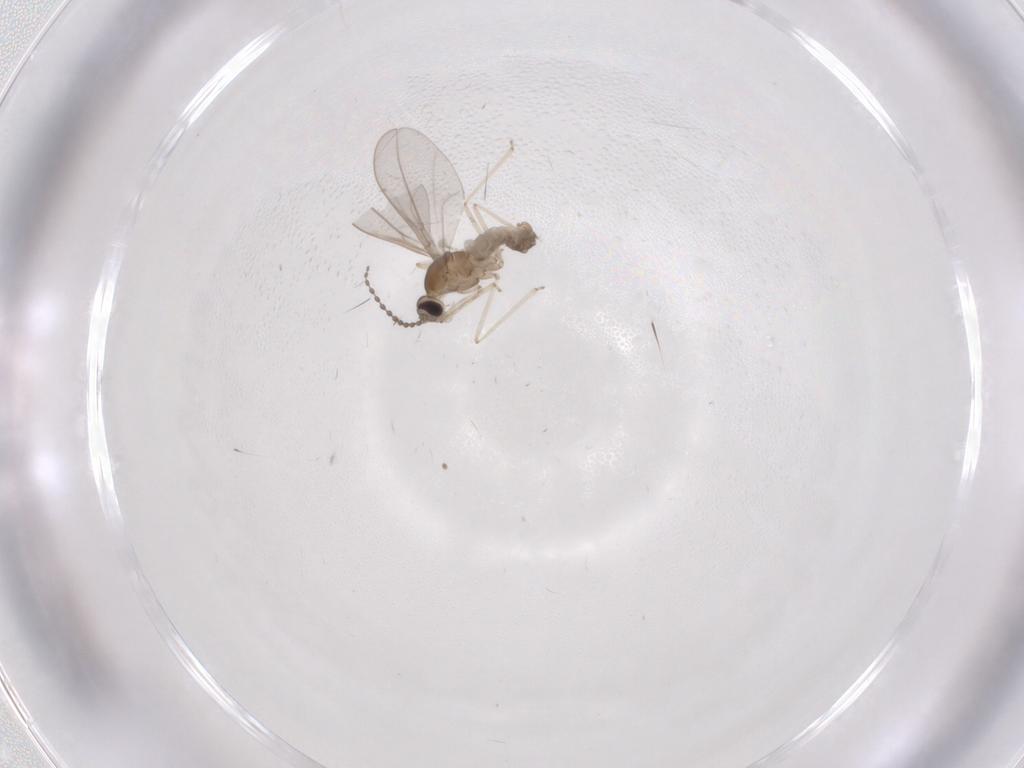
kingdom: Animalia
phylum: Arthropoda
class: Insecta
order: Diptera
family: Cecidomyiidae
